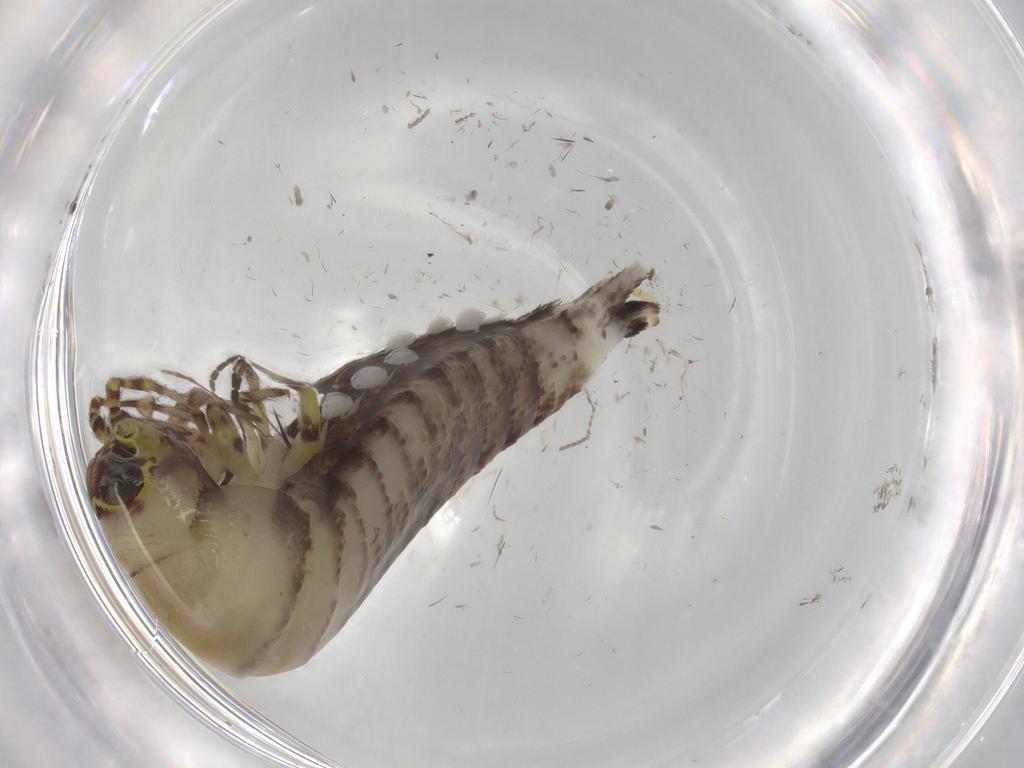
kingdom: Animalia
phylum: Arthropoda
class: Insecta
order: Archaeognatha
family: Machilidae
